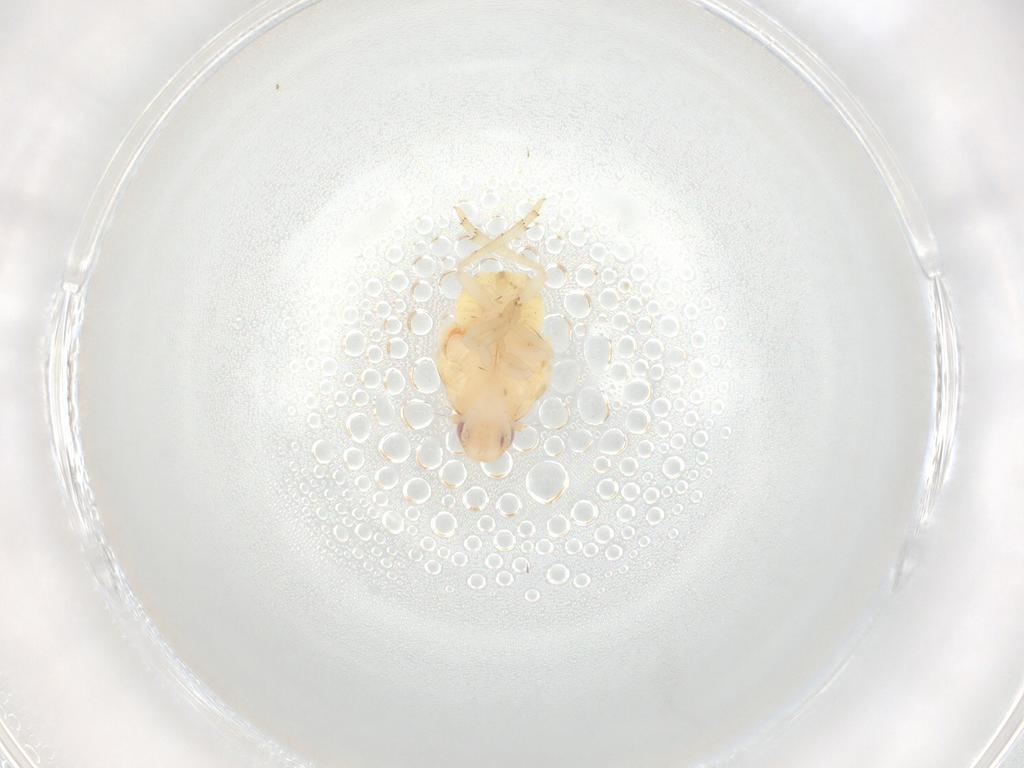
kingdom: Animalia
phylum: Arthropoda
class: Insecta
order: Hemiptera
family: Flatidae
